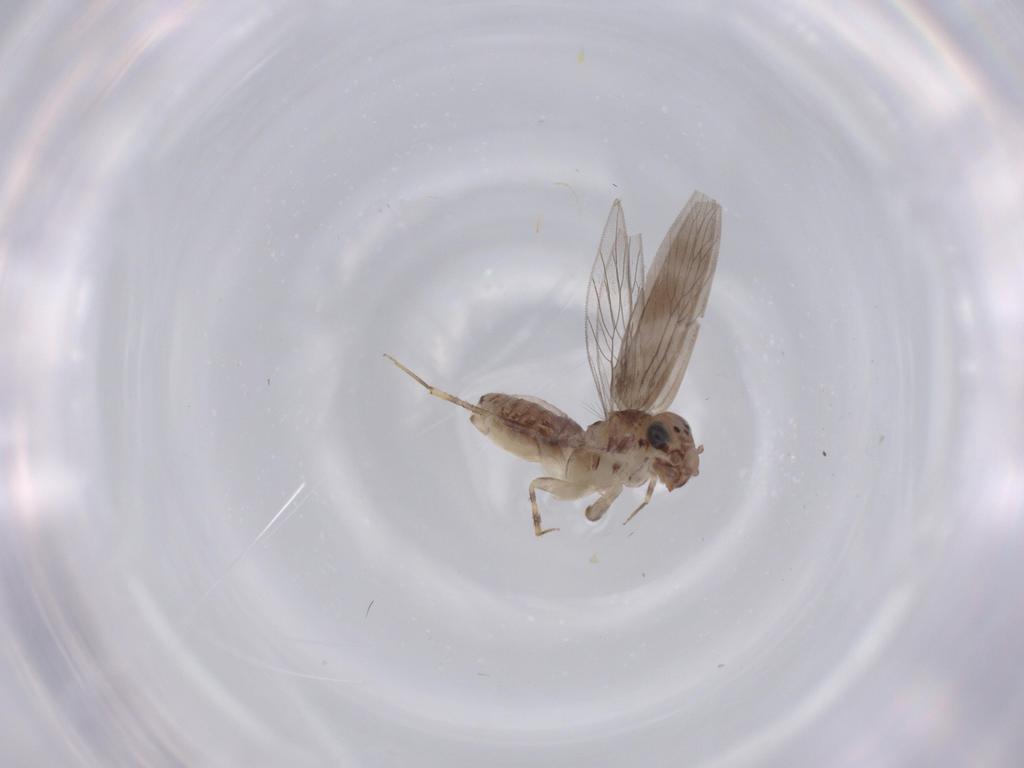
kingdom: Animalia
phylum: Arthropoda
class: Insecta
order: Psocodea
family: Lepidopsocidae
